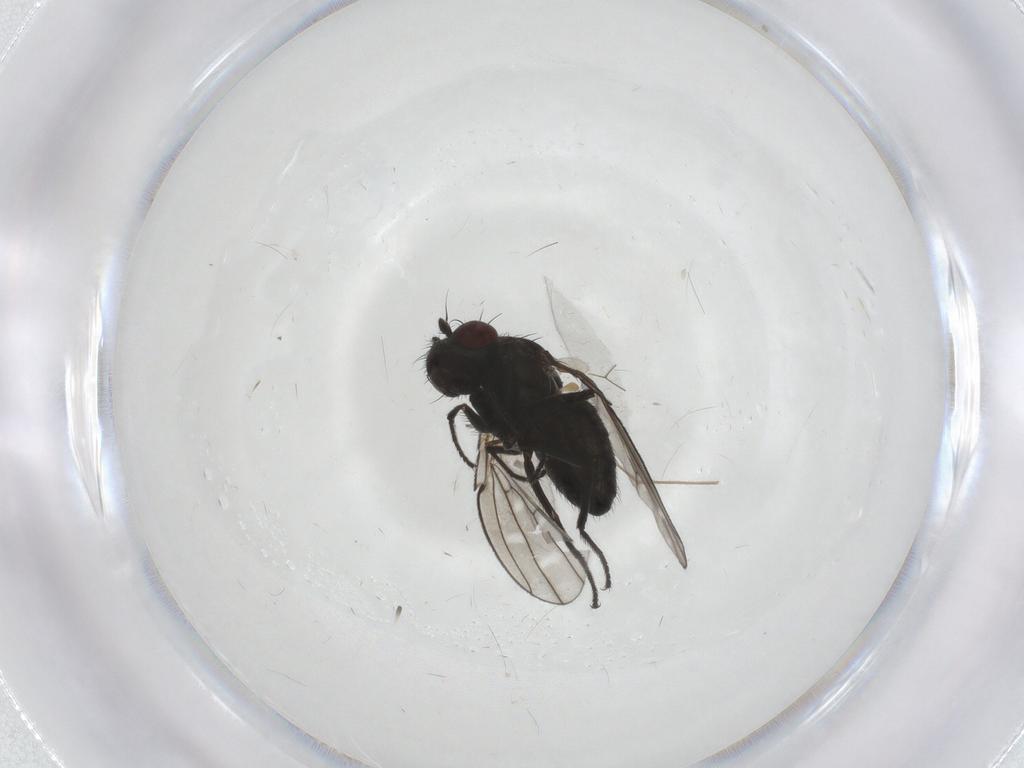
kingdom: Animalia
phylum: Arthropoda
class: Insecta
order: Diptera
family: Ephydridae
